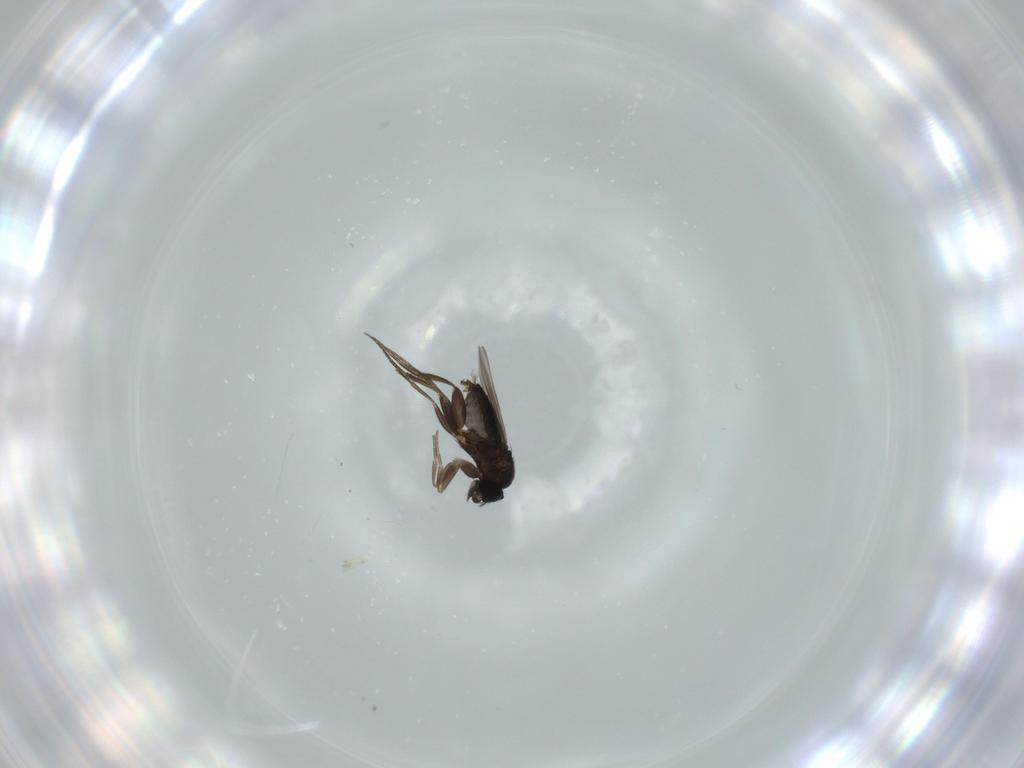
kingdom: Animalia
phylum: Arthropoda
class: Insecta
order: Diptera
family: Phoridae
